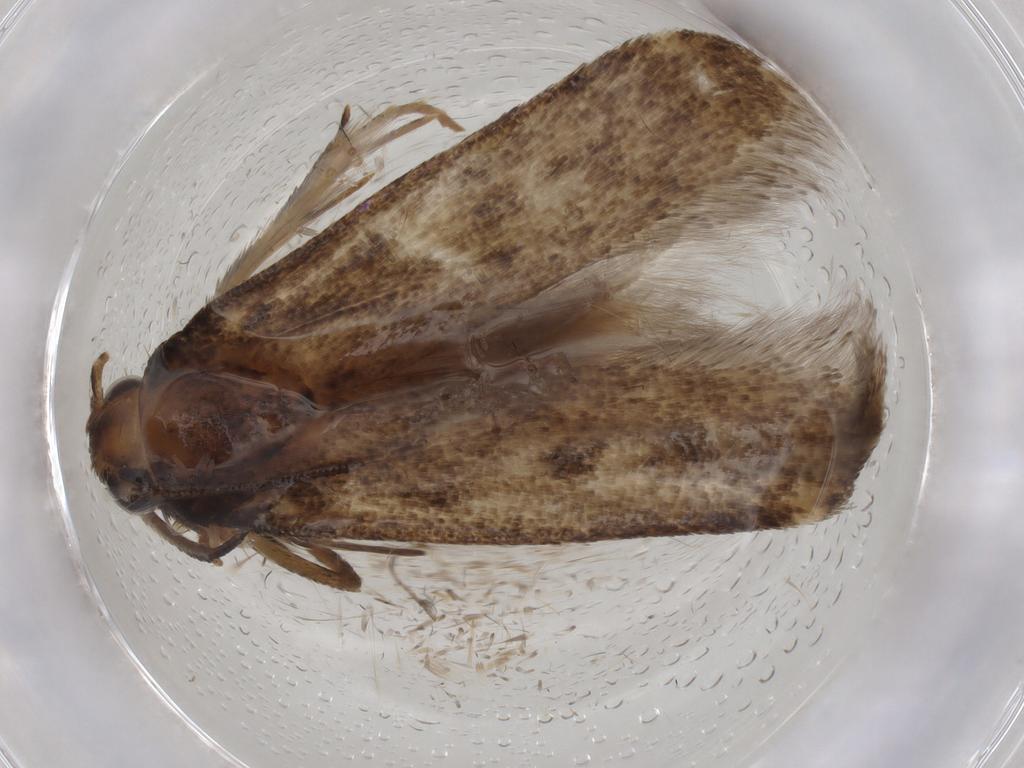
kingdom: Animalia
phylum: Arthropoda
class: Insecta
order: Lepidoptera
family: Gelechiidae
